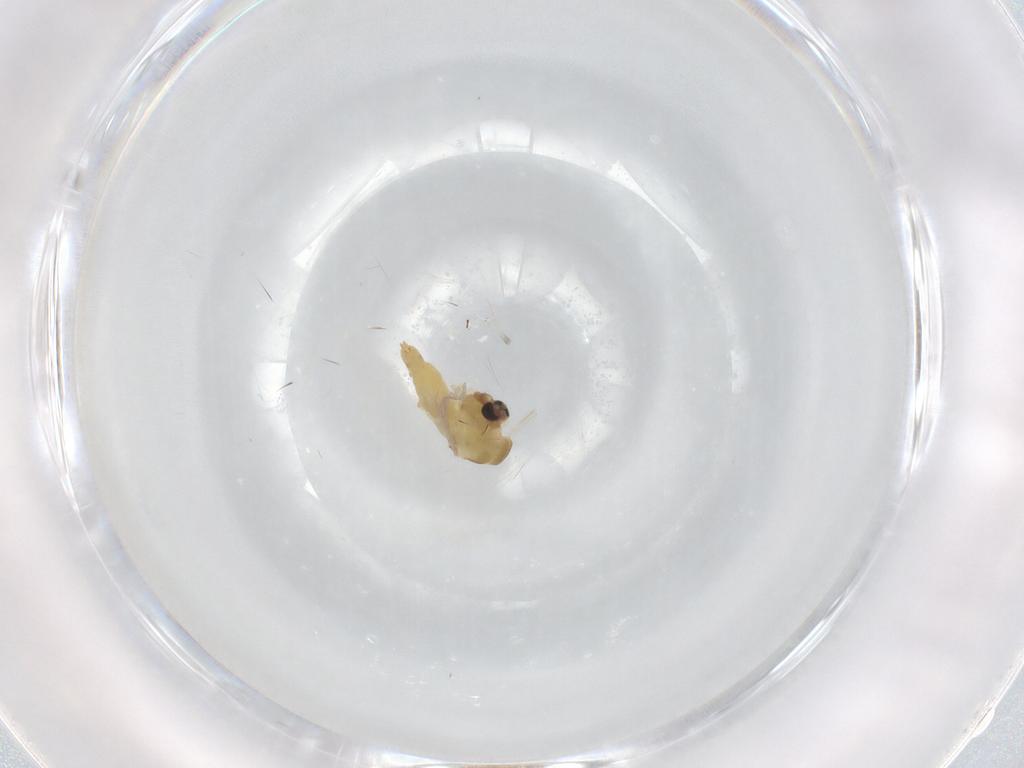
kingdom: Animalia
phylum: Arthropoda
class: Insecta
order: Diptera
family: Chironomidae
